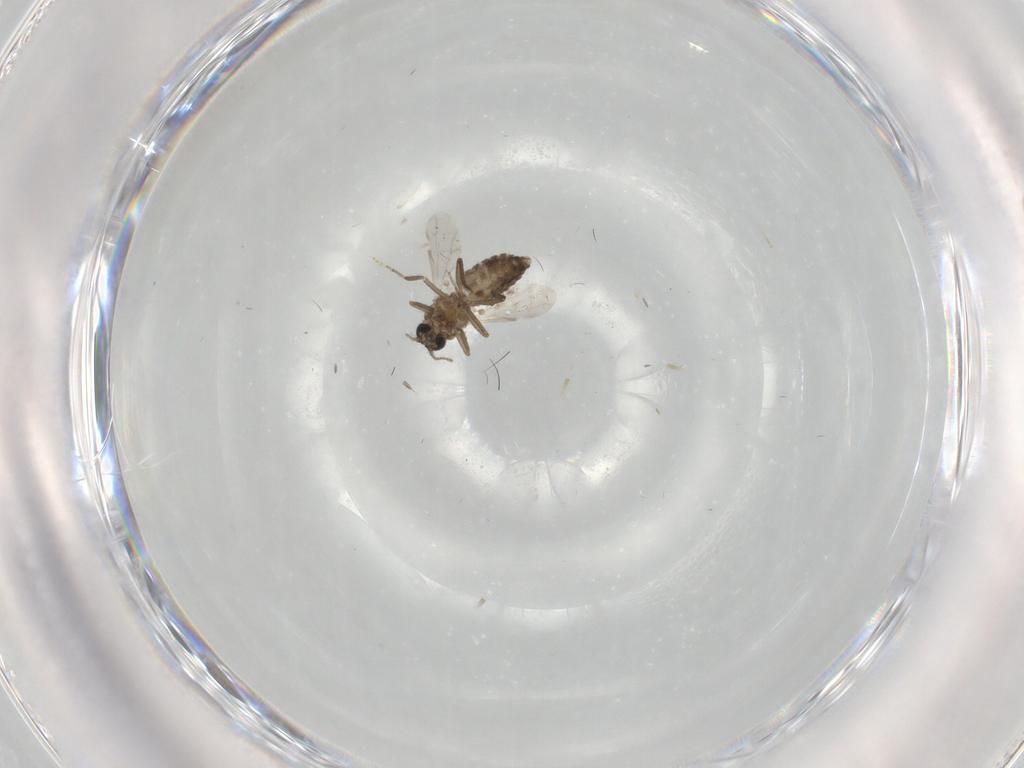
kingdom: Animalia
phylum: Arthropoda
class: Insecta
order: Diptera
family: Ceratopogonidae
